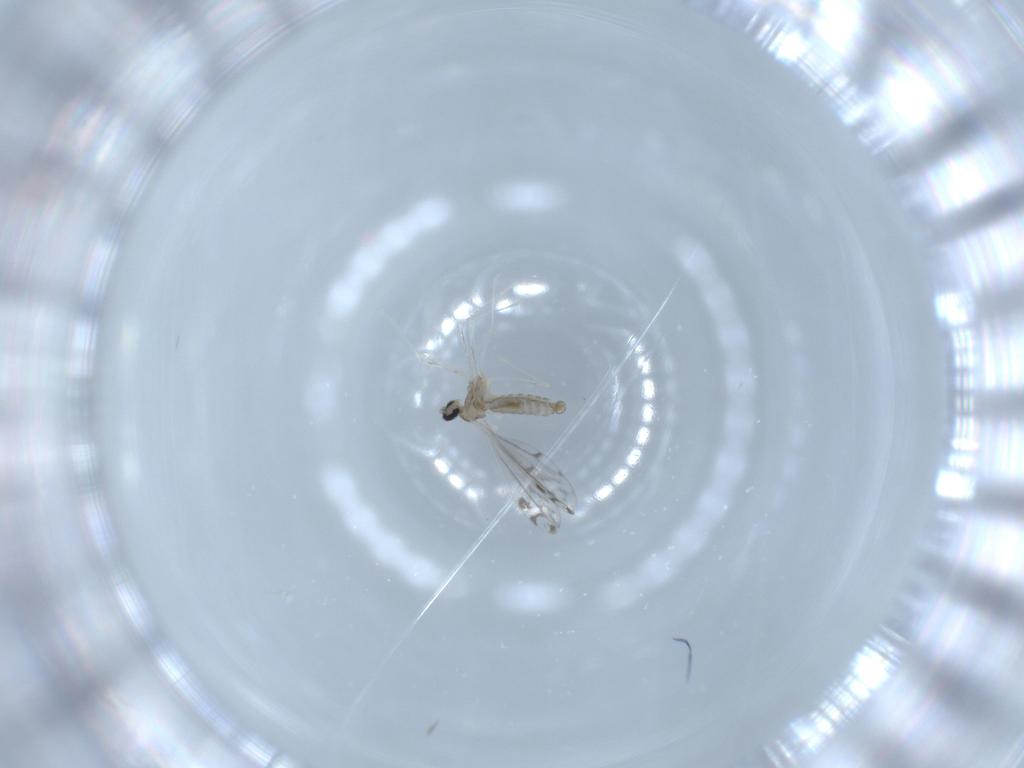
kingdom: Animalia
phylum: Arthropoda
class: Insecta
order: Diptera
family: Cecidomyiidae
